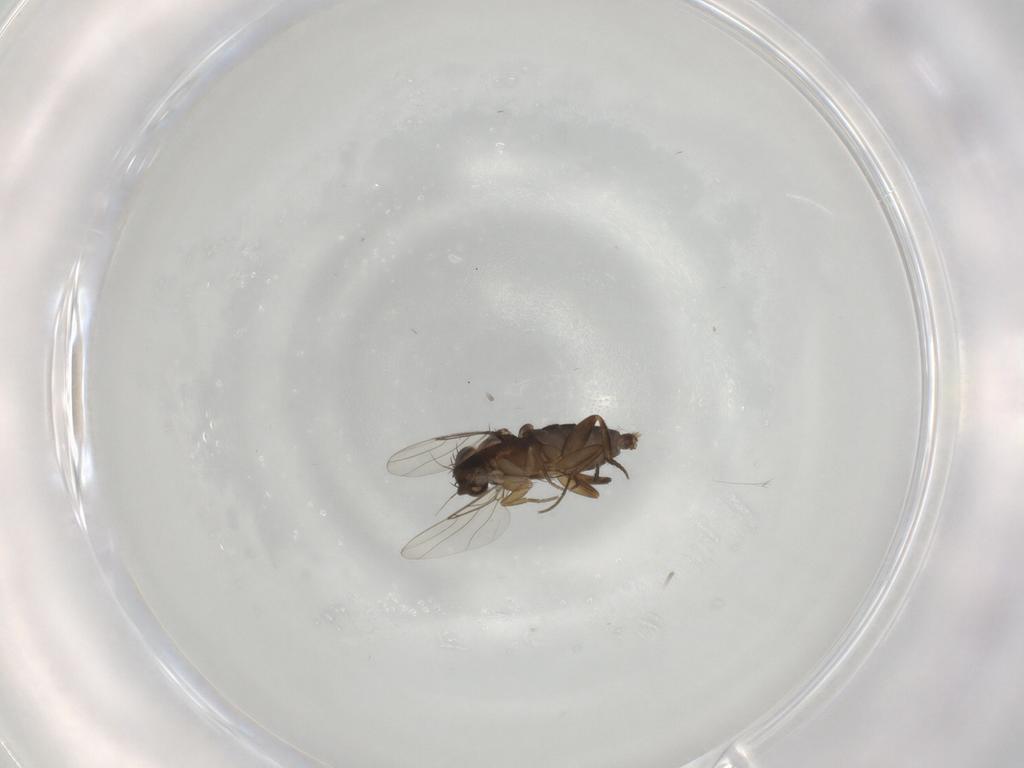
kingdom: Animalia
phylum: Arthropoda
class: Insecta
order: Diptera
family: Phoridae
